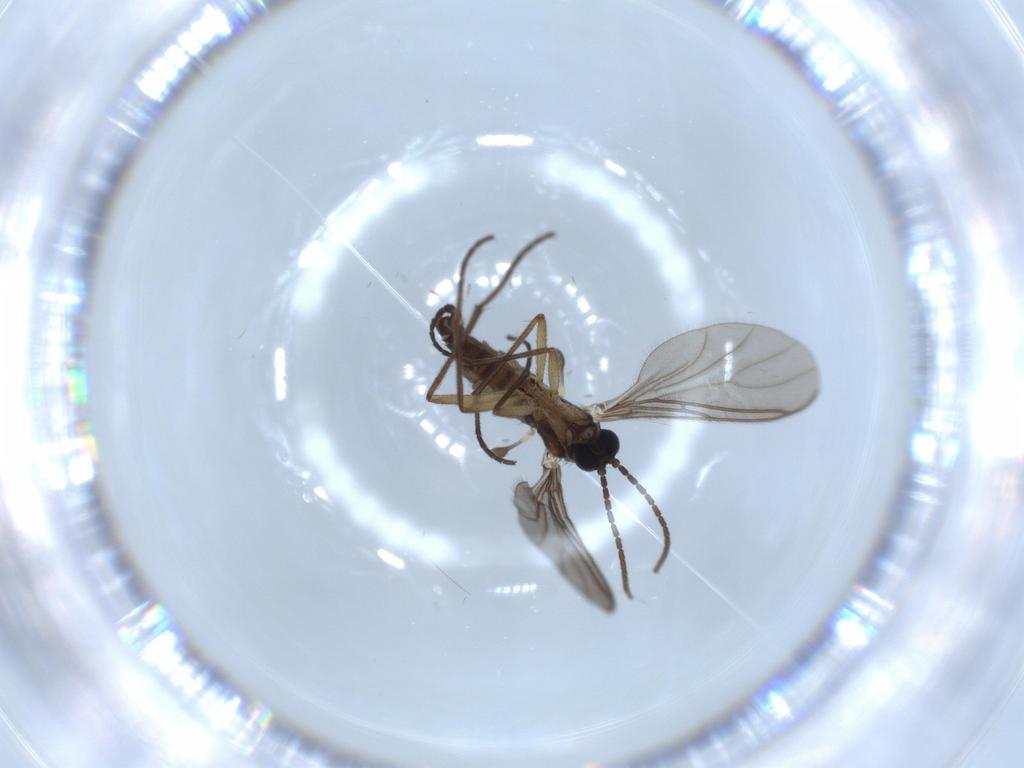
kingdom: Animalia
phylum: Arthropoda
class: Insecta
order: Diptera
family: Sciaridae
